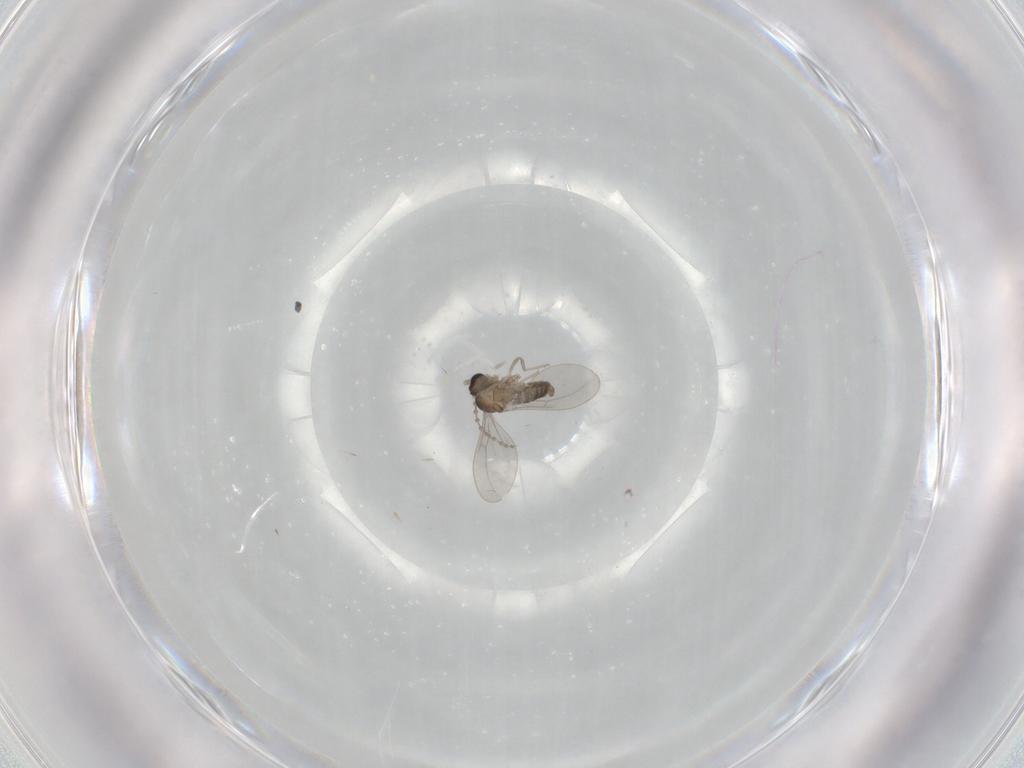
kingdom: Animalia
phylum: Arthropoda
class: Insecta
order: Diptera
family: Cecidomyiidae
